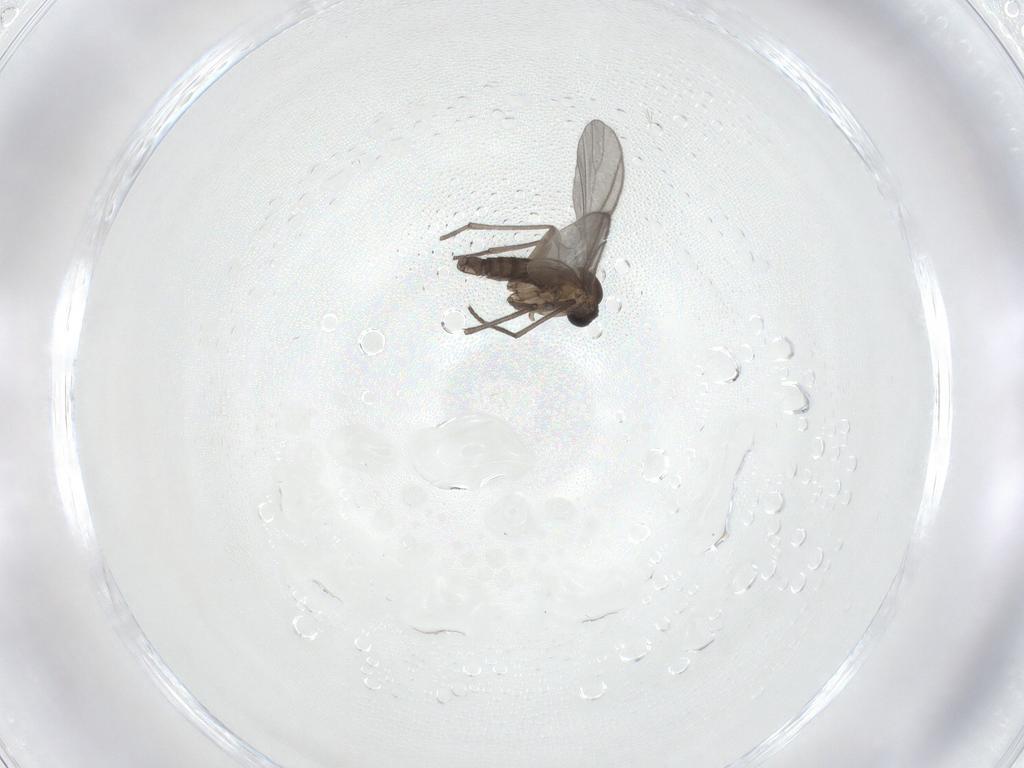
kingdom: Animalia
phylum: Arthropoda
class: Insecta
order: Diptera
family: Sciaridae
